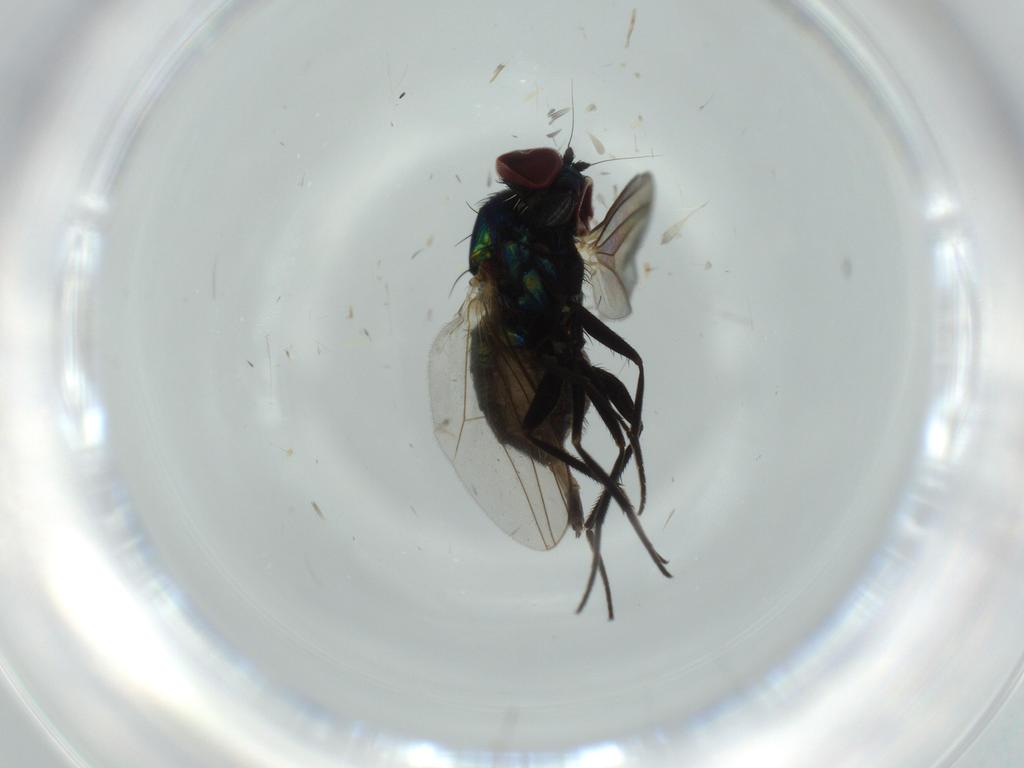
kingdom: Animalia
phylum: Arthropoda
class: Insecta
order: Diptera
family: Dolichopodidae
